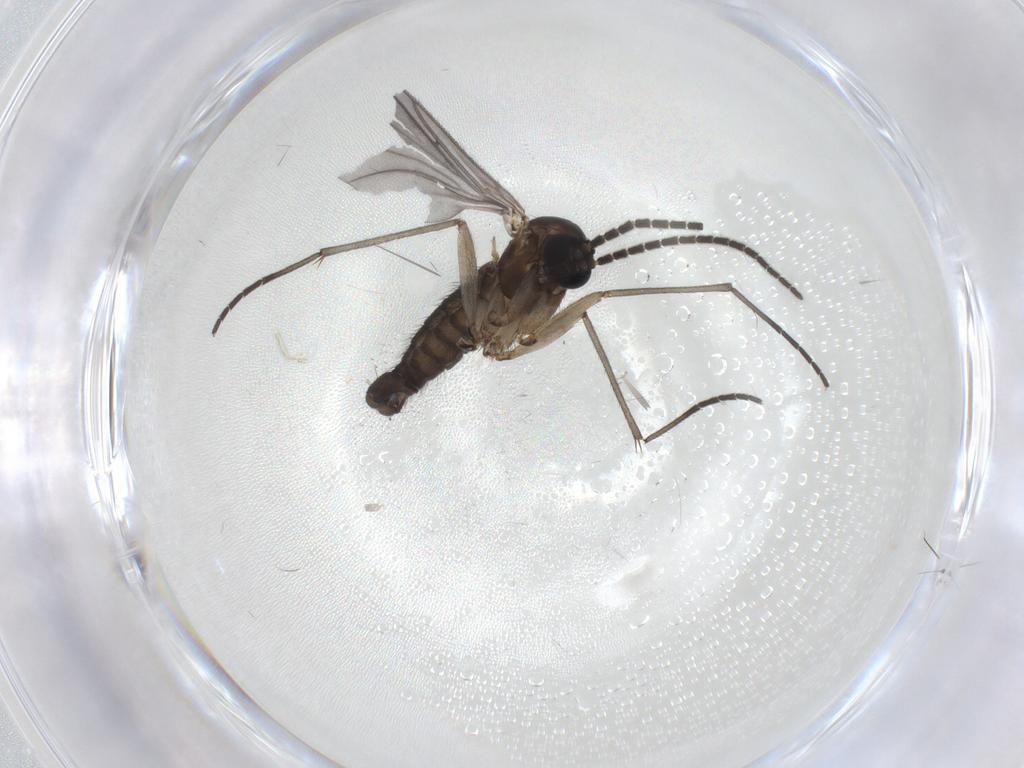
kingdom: Animalia
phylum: Arthropoda
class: Insecta
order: Diptera
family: Sciaridae
